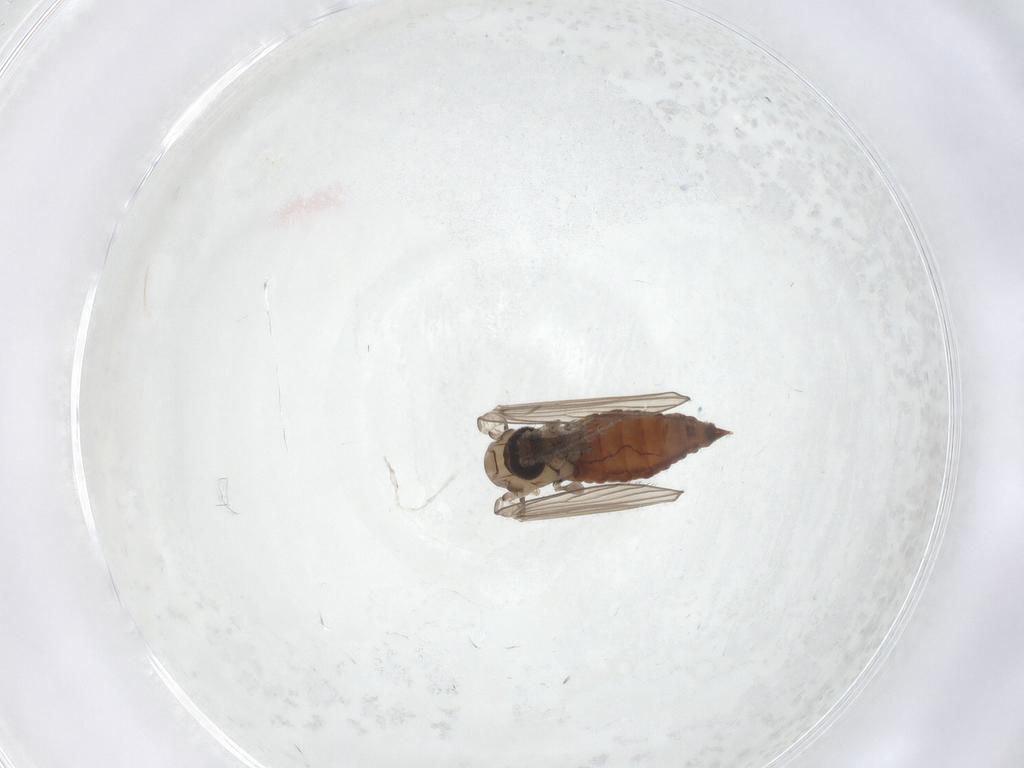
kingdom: Animalia
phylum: Arthropoda
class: Insecta
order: Diptera
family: Psychodidae
